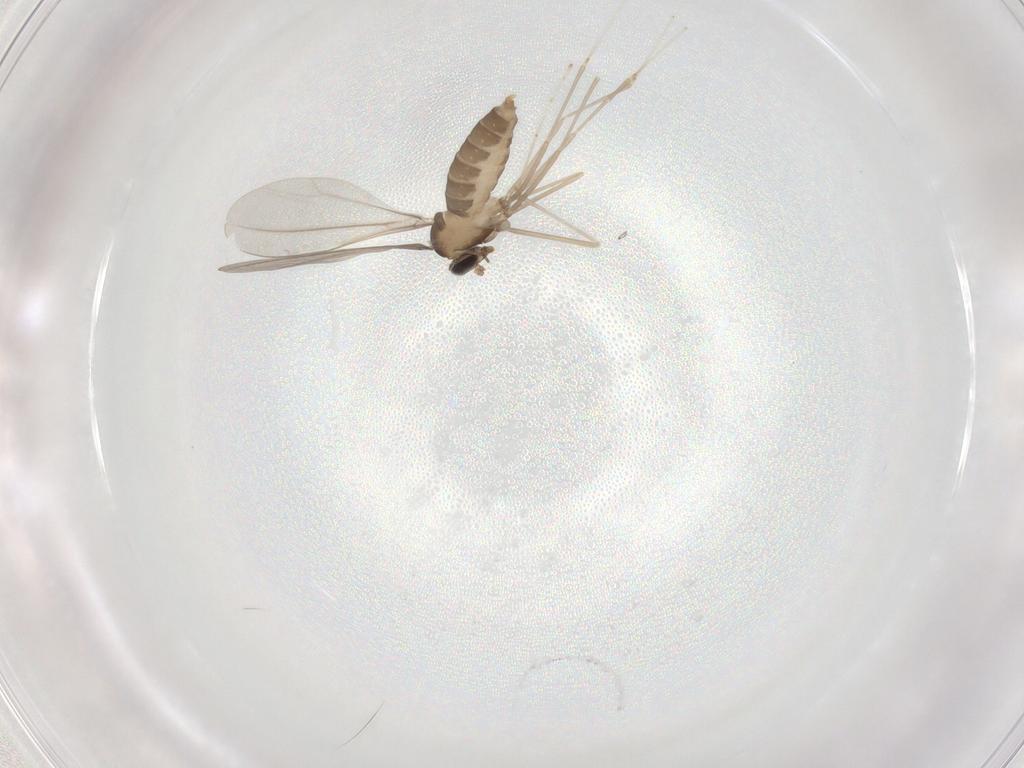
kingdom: Animalia
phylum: Arthropoda
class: Insecta
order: Diptera
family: Cecidomyiidae
